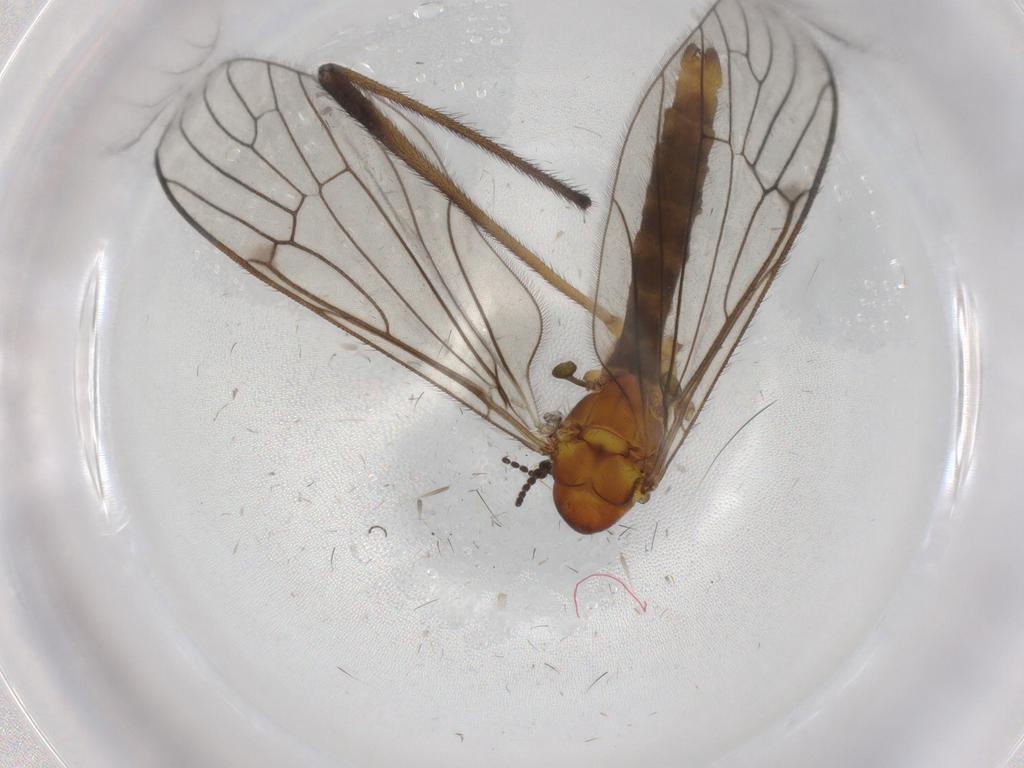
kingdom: Animalia
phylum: Arthropoda
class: Insecta
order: Diptera
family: Cecidomyiidae
